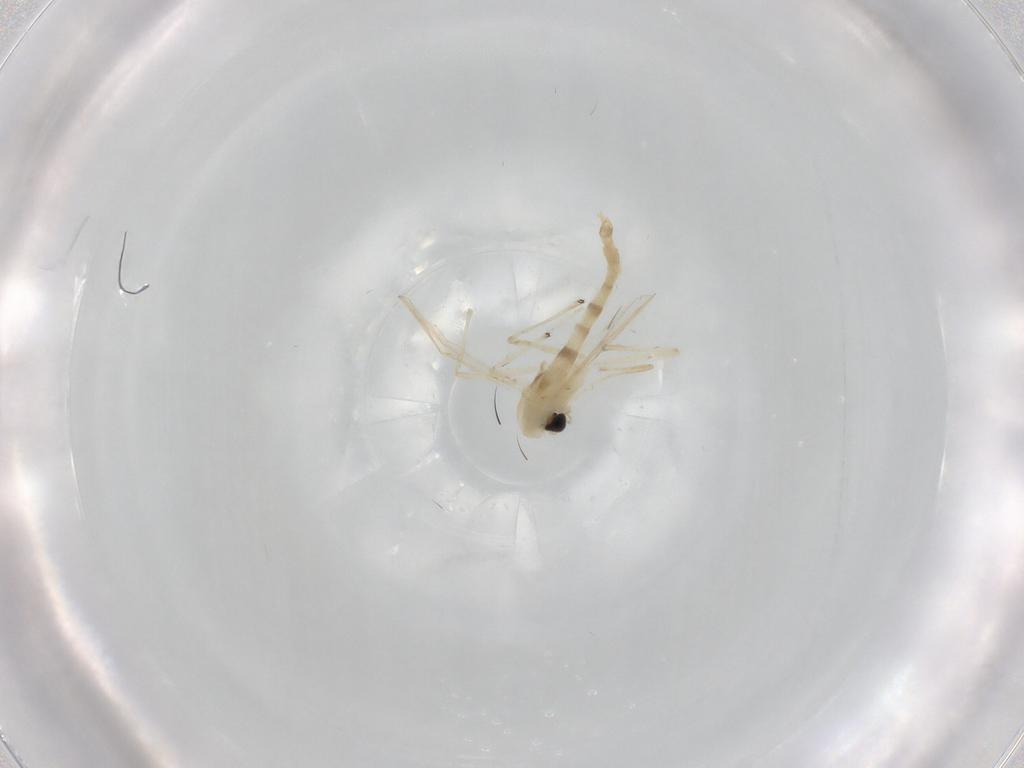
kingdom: Animalia
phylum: Arthropoda
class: Insecta
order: Diptera
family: Chironomidae
